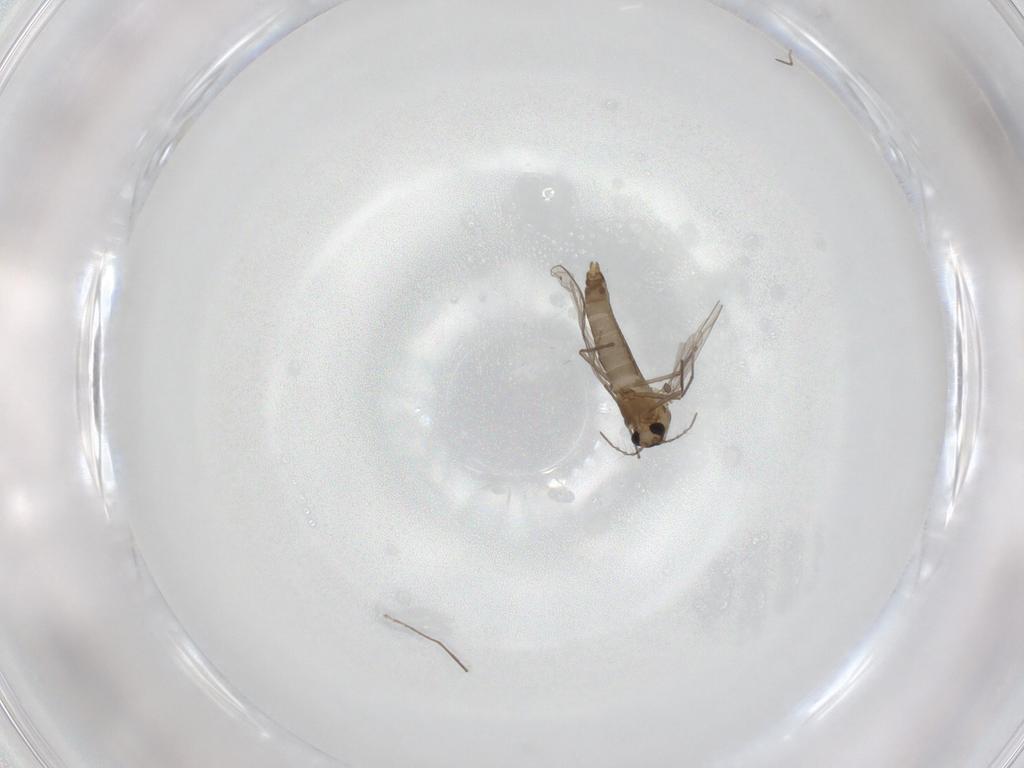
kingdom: Animalia
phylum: Arthropoda
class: Insecta
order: Diptera
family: Chironomidae
